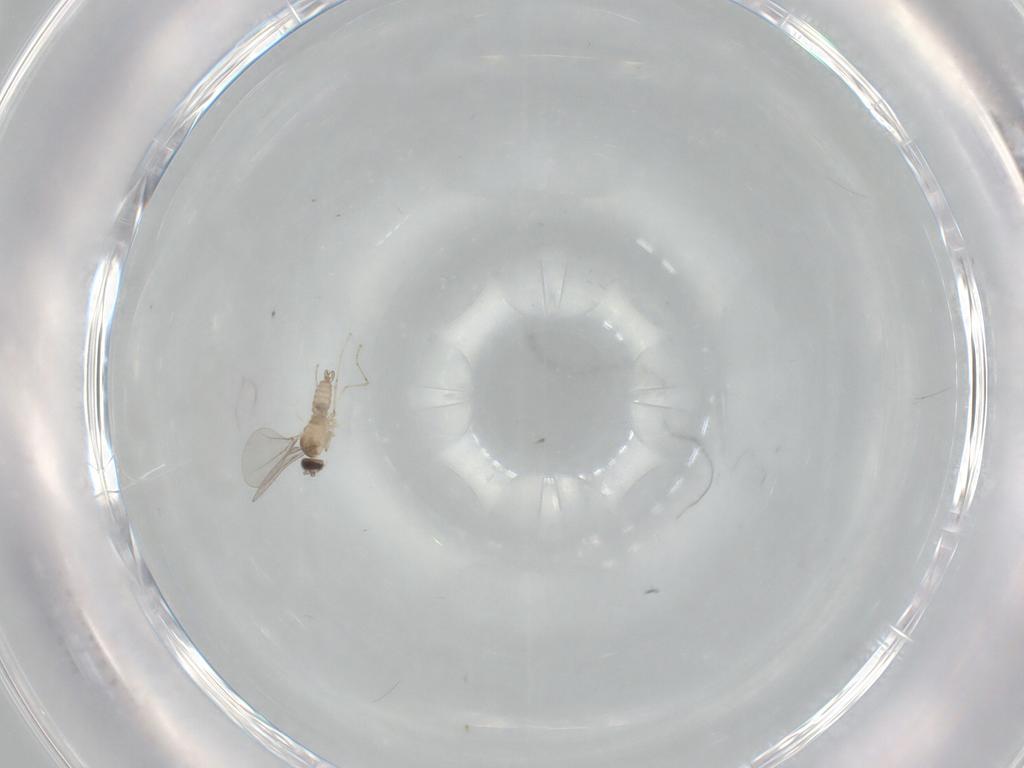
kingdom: Animalia
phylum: Arthropoda
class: Insecta
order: Diptera
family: Cecidomyiidae
